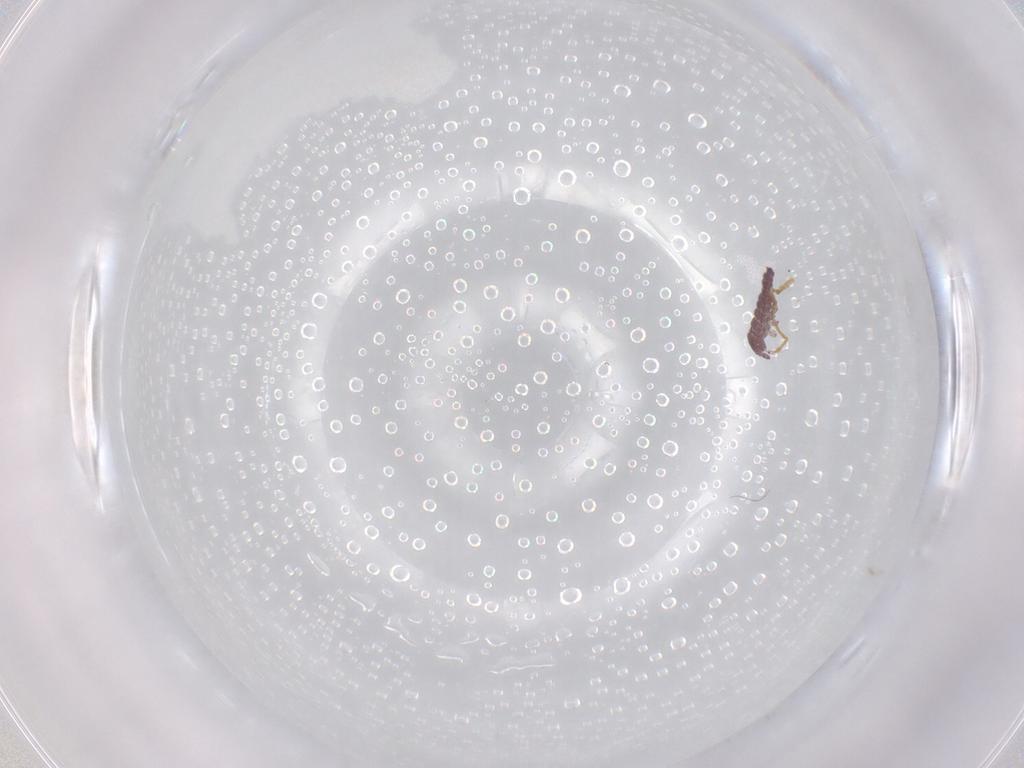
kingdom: Animalia
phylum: Arthropoda
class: Collembola
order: Poduromorpha
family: Hypogastruridae
